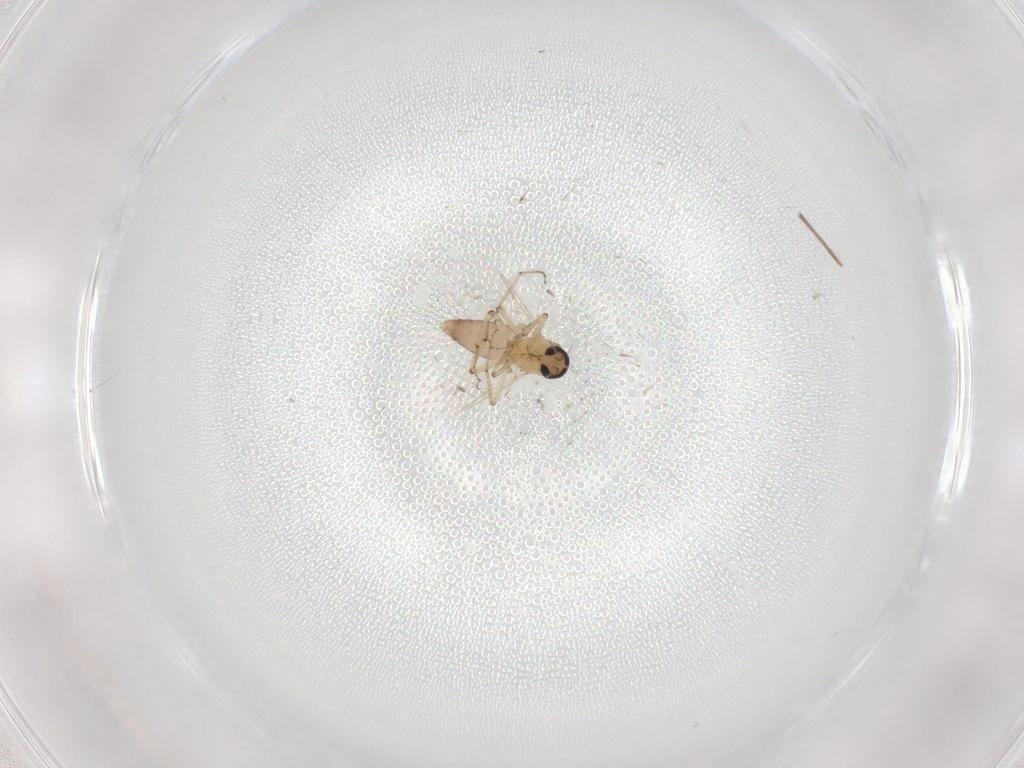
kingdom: Animalia
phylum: Arthropoda
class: Insecta
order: Diptera
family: Ceratopogonidae
